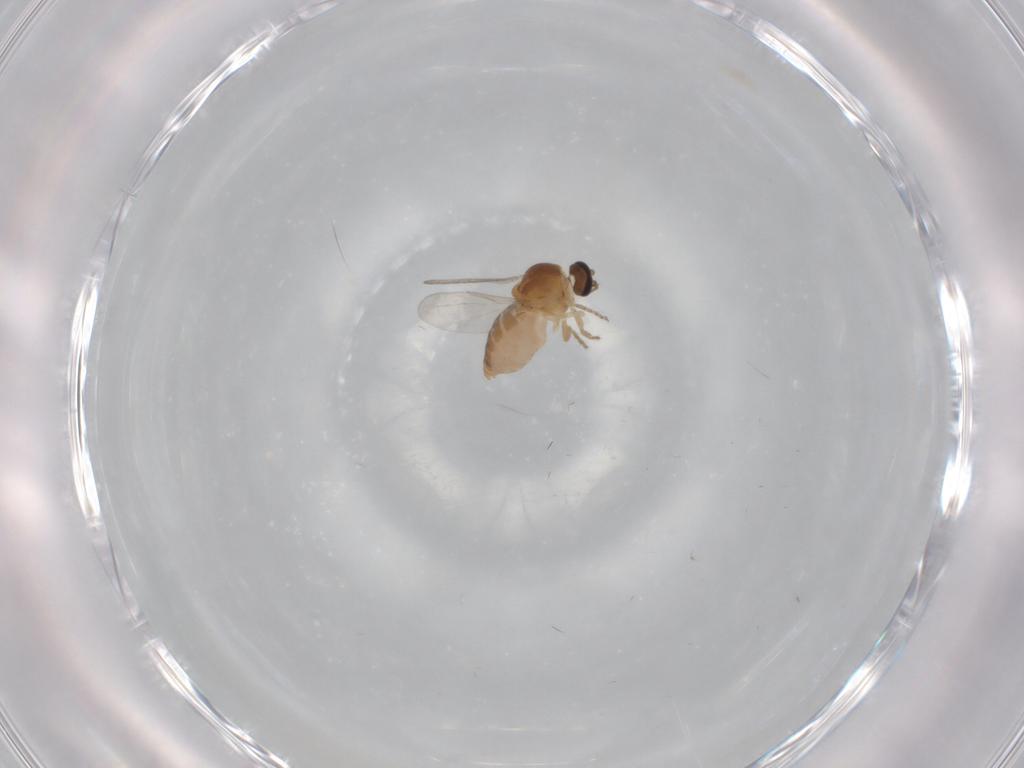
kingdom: Animalia
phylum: Arthropoda
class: Insecta
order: Diptera
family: Ceratopogonidae
